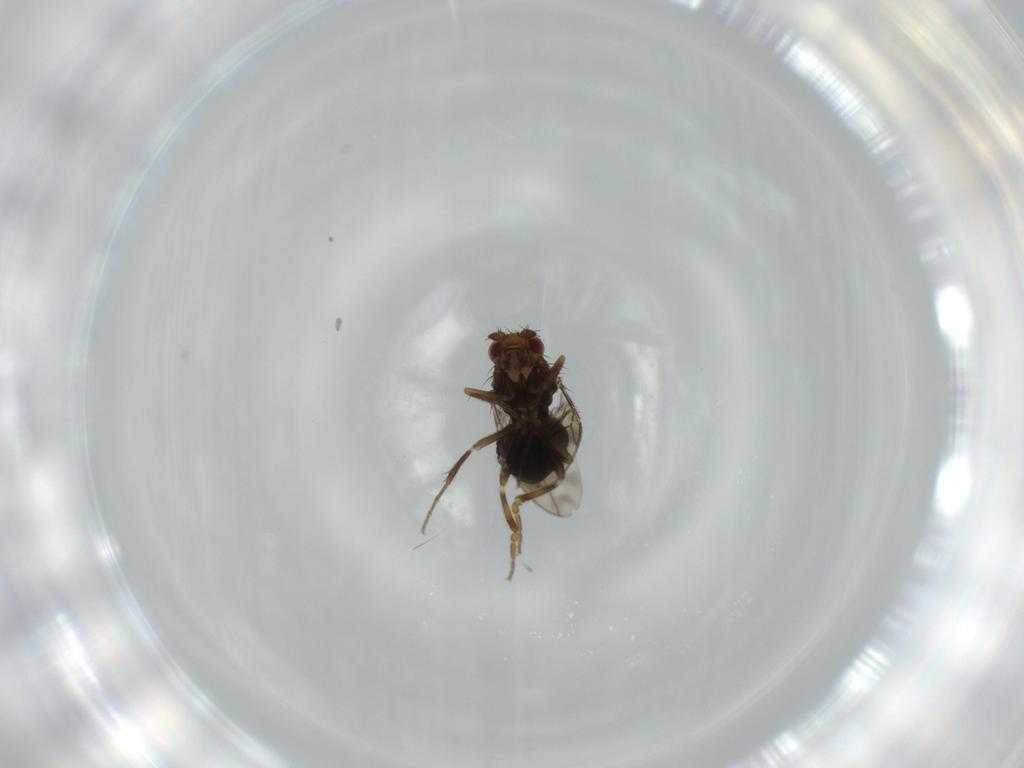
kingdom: Animalia
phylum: Arthropoda
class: Insecta
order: Diptera
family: Sphaeroceridae
